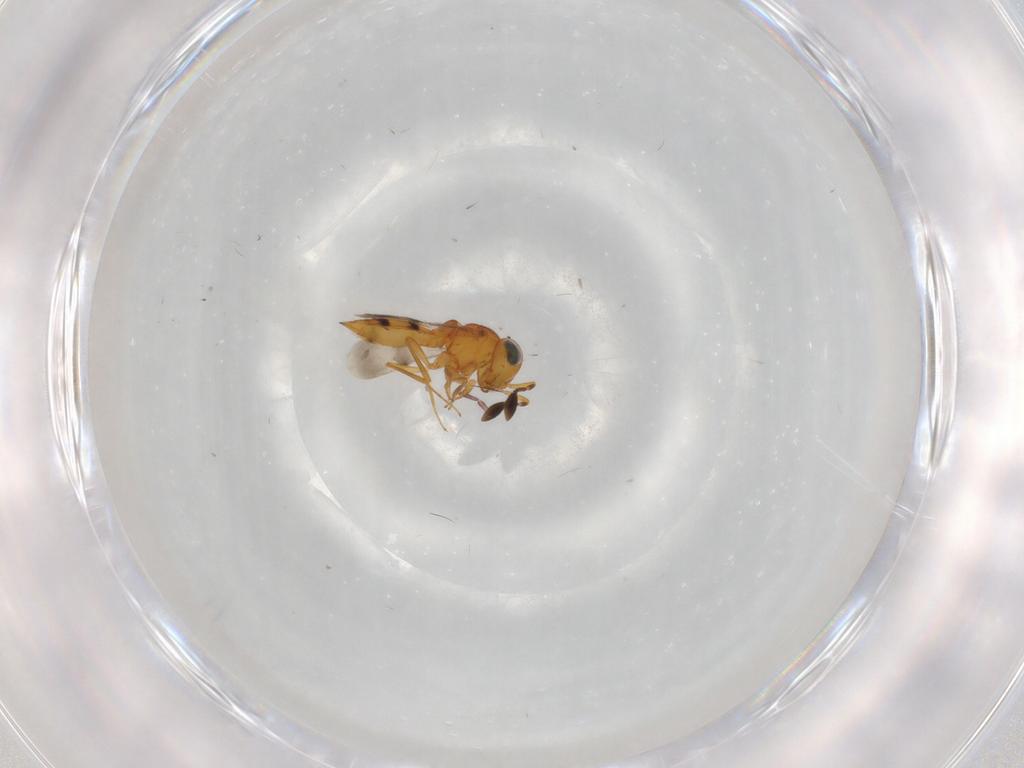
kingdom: Animalia
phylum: Arthropoda
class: Insecta
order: Hymenoptera
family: Scelionidae
